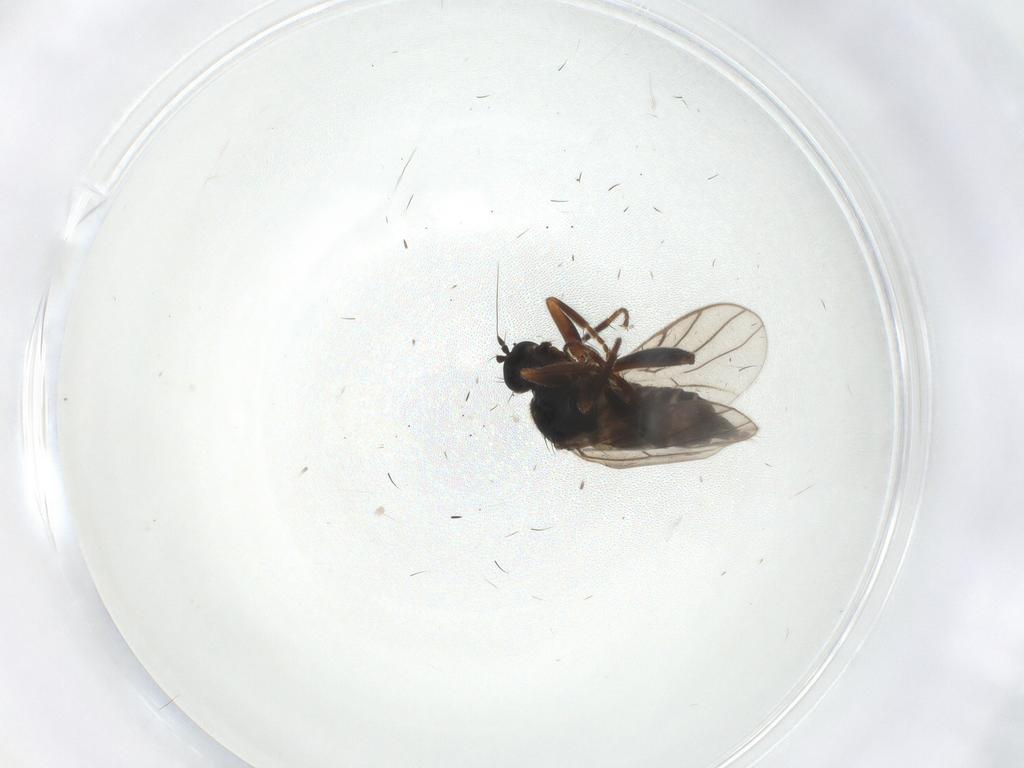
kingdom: Animalia
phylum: Arthropoda
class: Insecta
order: Diptera
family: Sciaridae
